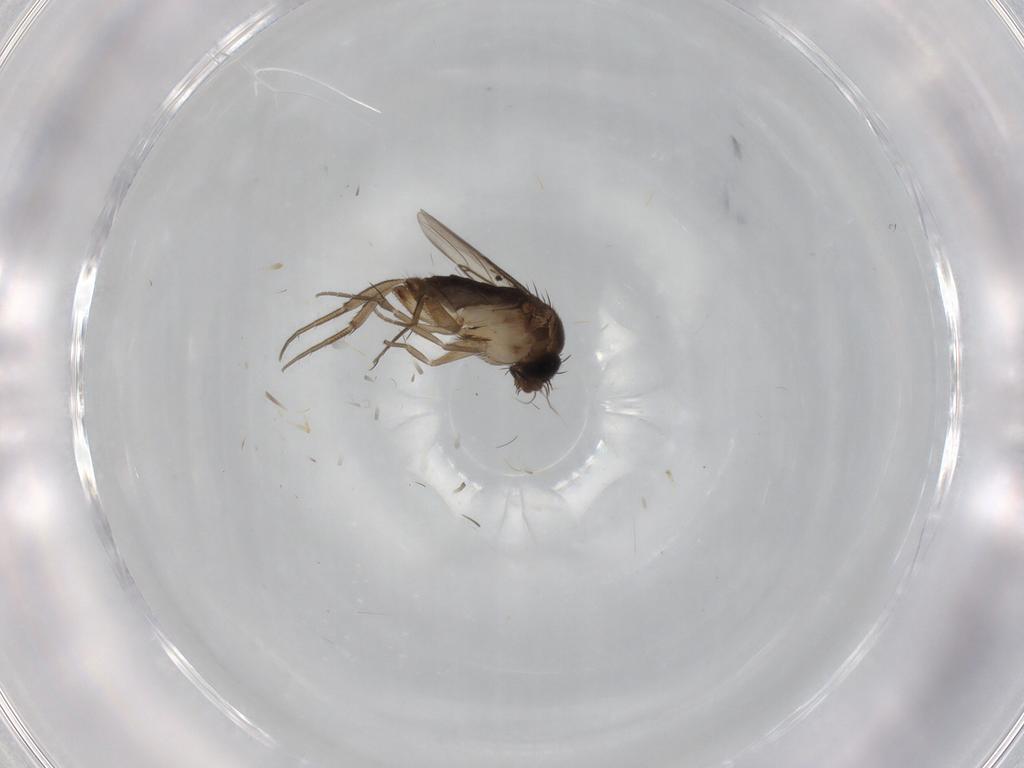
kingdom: Animalia
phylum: Arthropoda
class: Insecta
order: Diptera
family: Phoridae
